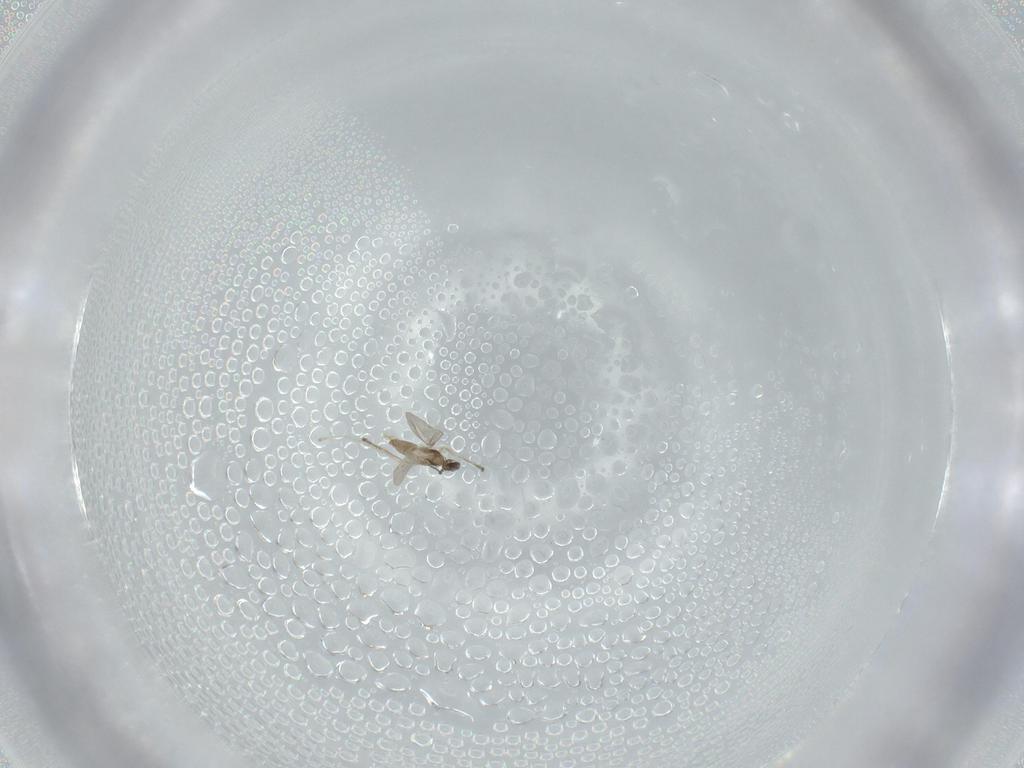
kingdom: Animalia
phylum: Arthropoda
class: Insecta
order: Diptera
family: Cecidomyiidae
